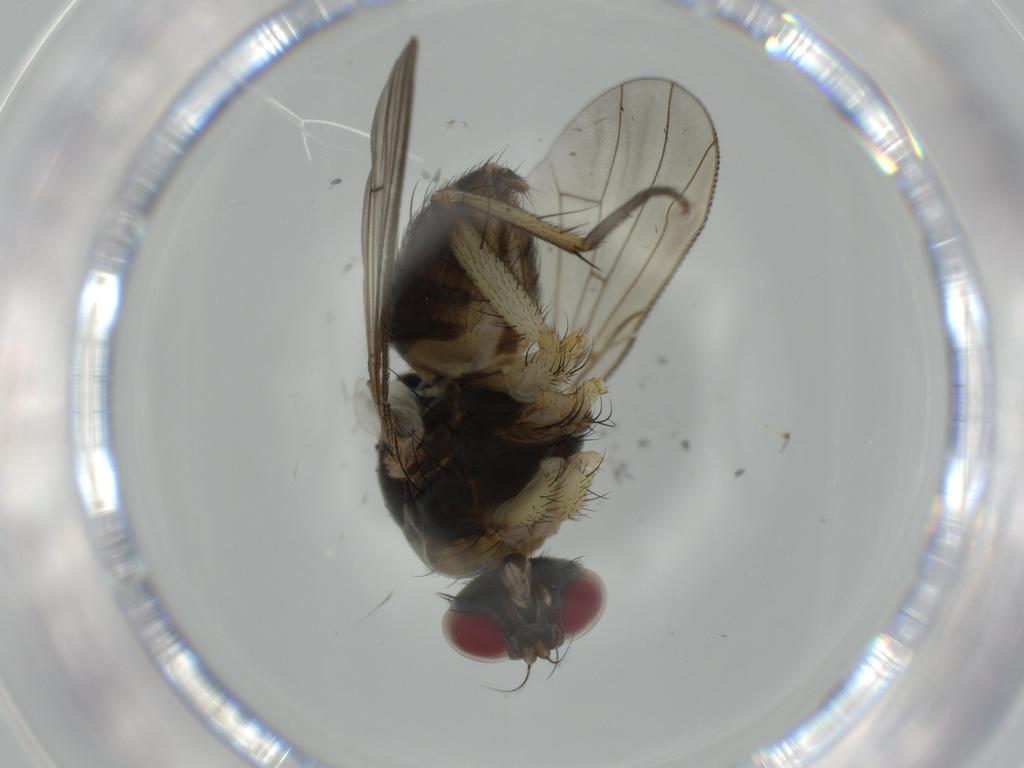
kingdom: Animalia
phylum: Arthropoda
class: Insecta
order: Diptera
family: Muscidae
